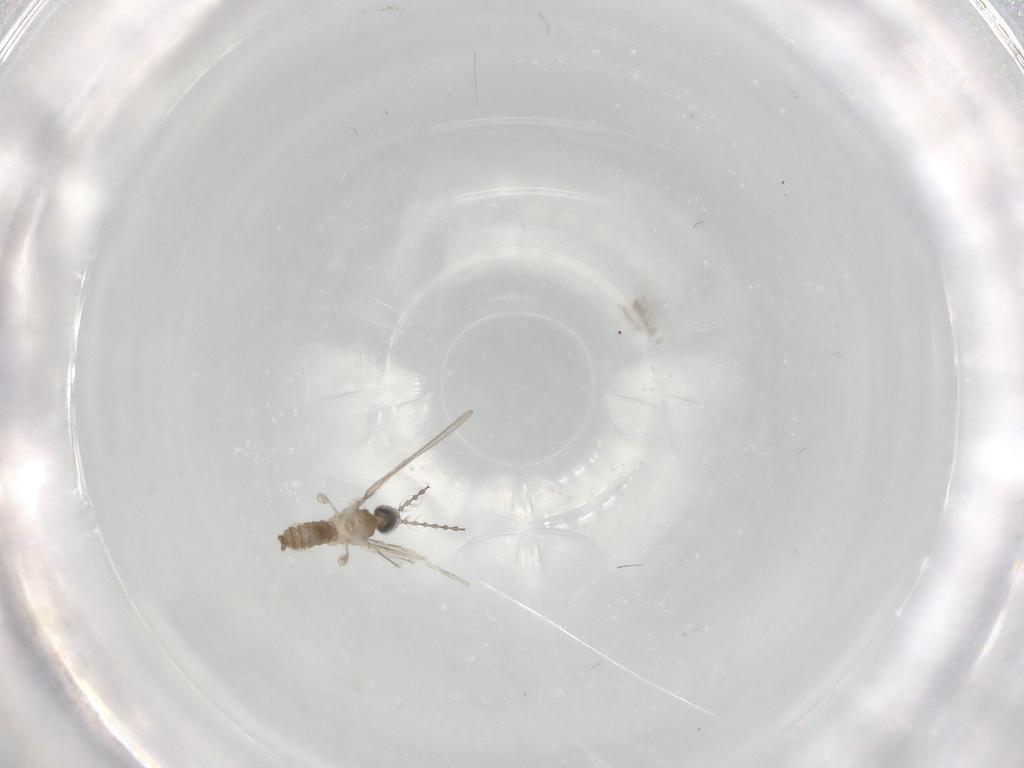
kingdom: Animalia
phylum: Arthropoda
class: Insecta
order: Diptera
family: Cecidomyiidae
